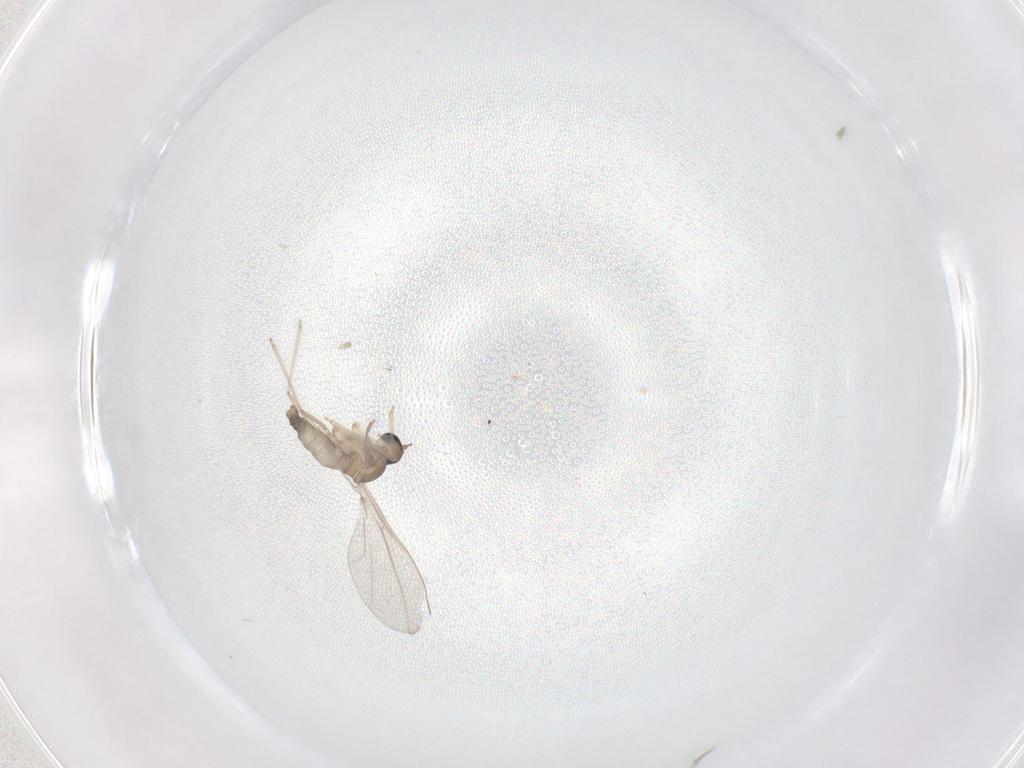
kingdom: Animalia
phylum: Arthropoda
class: Insecta
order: Diptera
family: Cecidomyiidae
